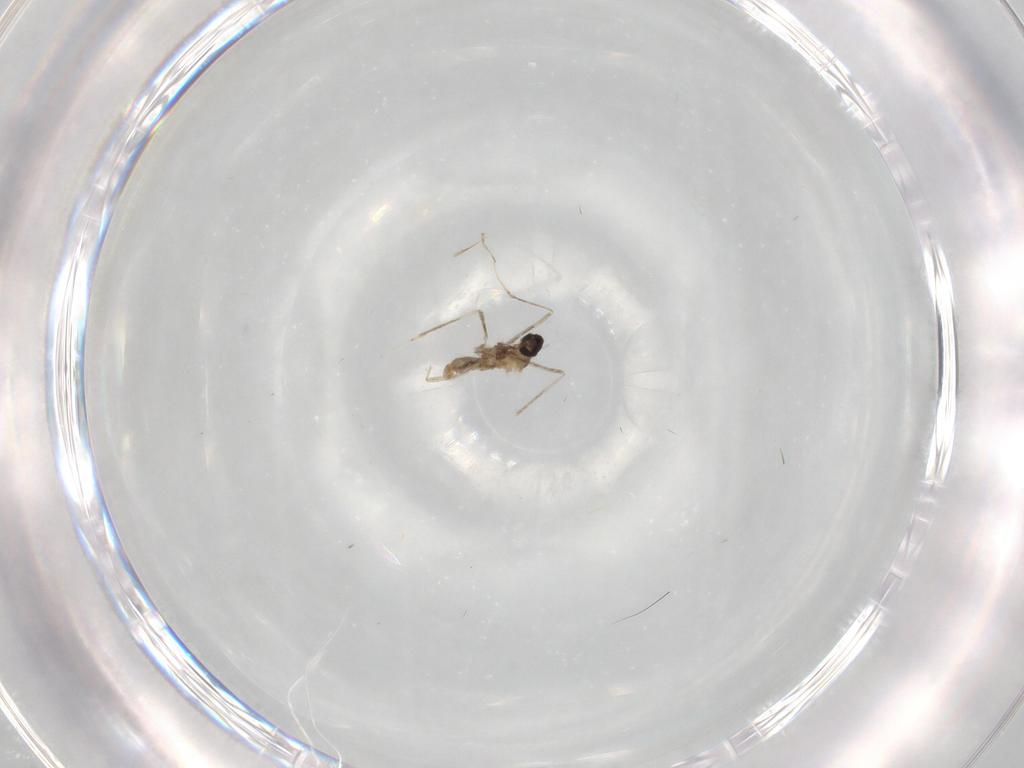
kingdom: Animalia
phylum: Arthropoda
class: Insecta
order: Diptera
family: Cecidomyiidae
